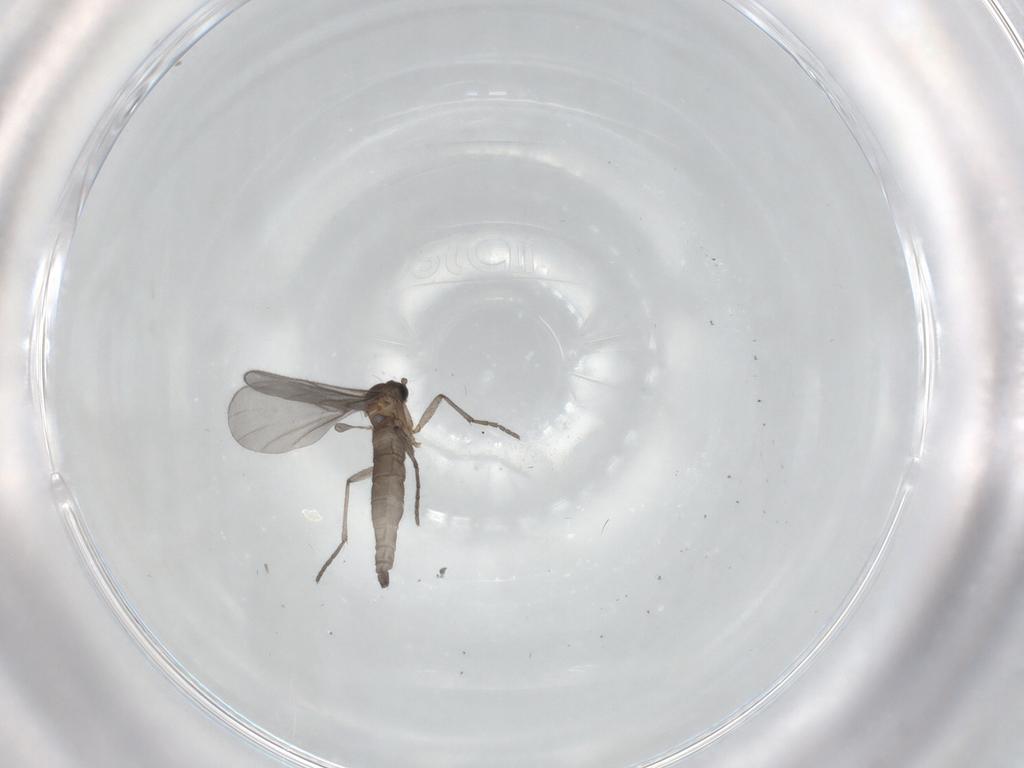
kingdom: Animalia
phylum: Arthropoda
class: Insecta
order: Diptera
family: Sciaridae
